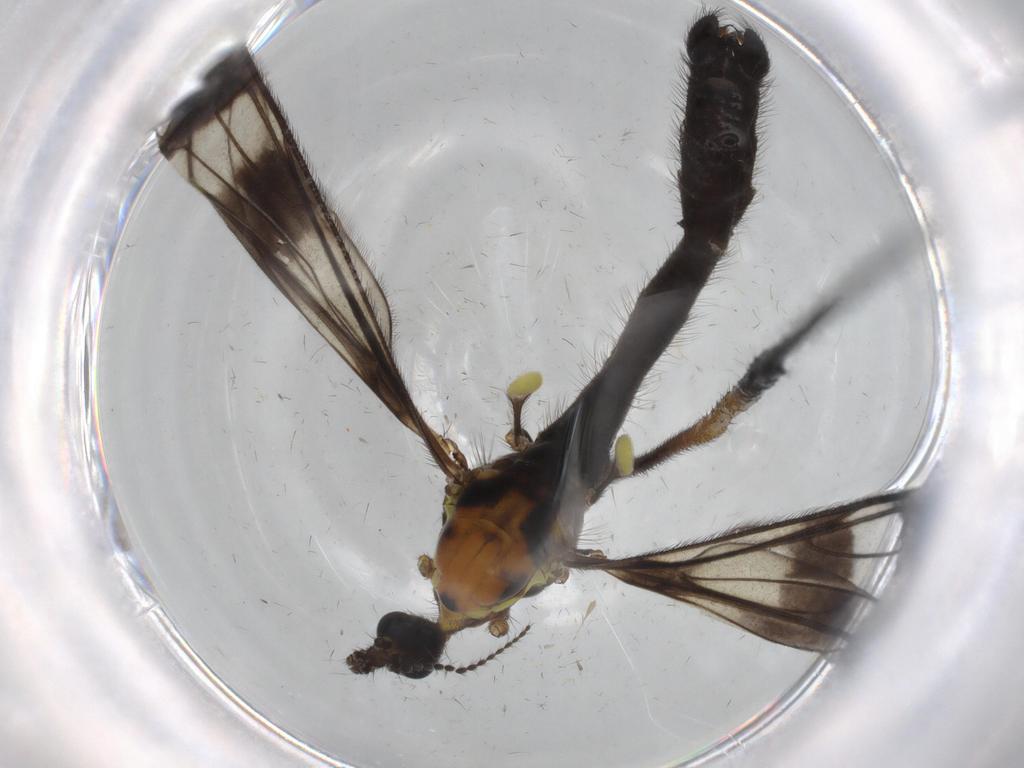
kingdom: Animalia
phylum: Arthropoda
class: Insecta
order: Diptera
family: Limoniidae
